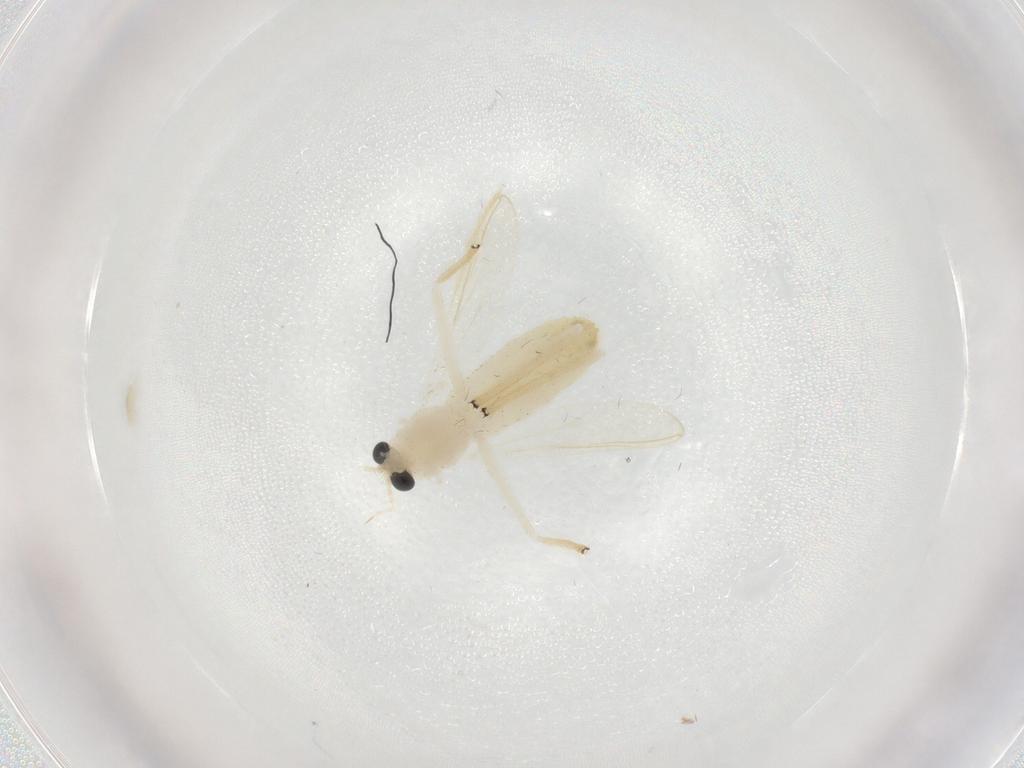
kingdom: Animalia
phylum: Arthropoda
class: Insecta
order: Diptera
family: Chironomidae
